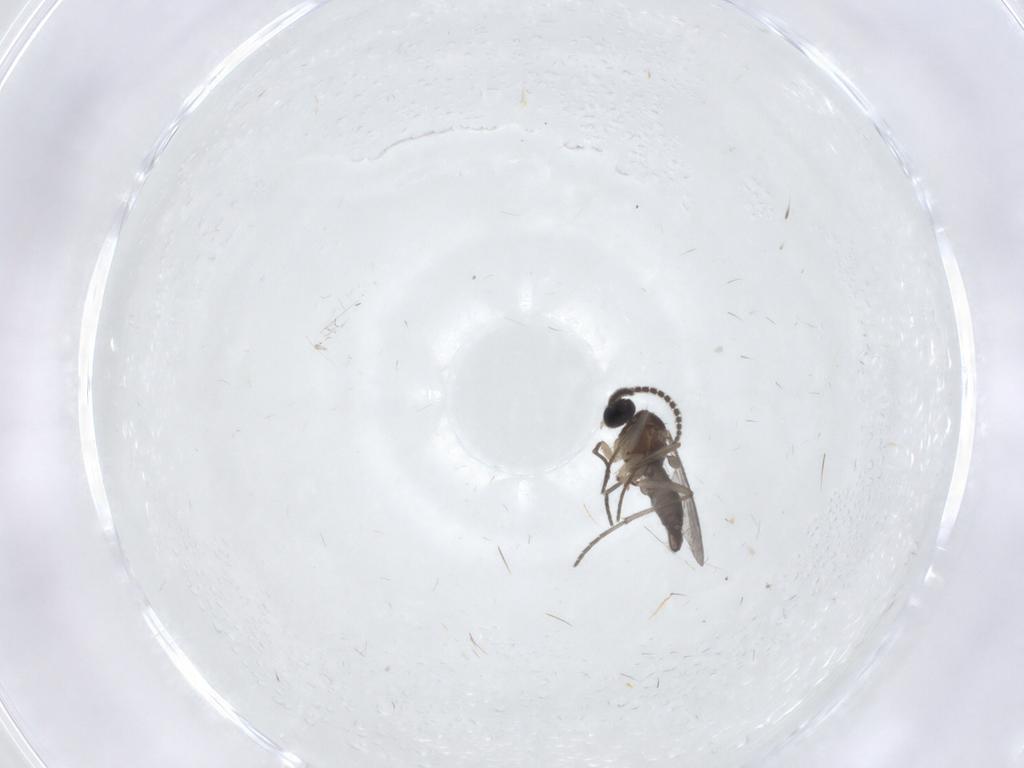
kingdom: Animalia
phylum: Arthropoda
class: Insecta
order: Diptera
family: Sciaridae
